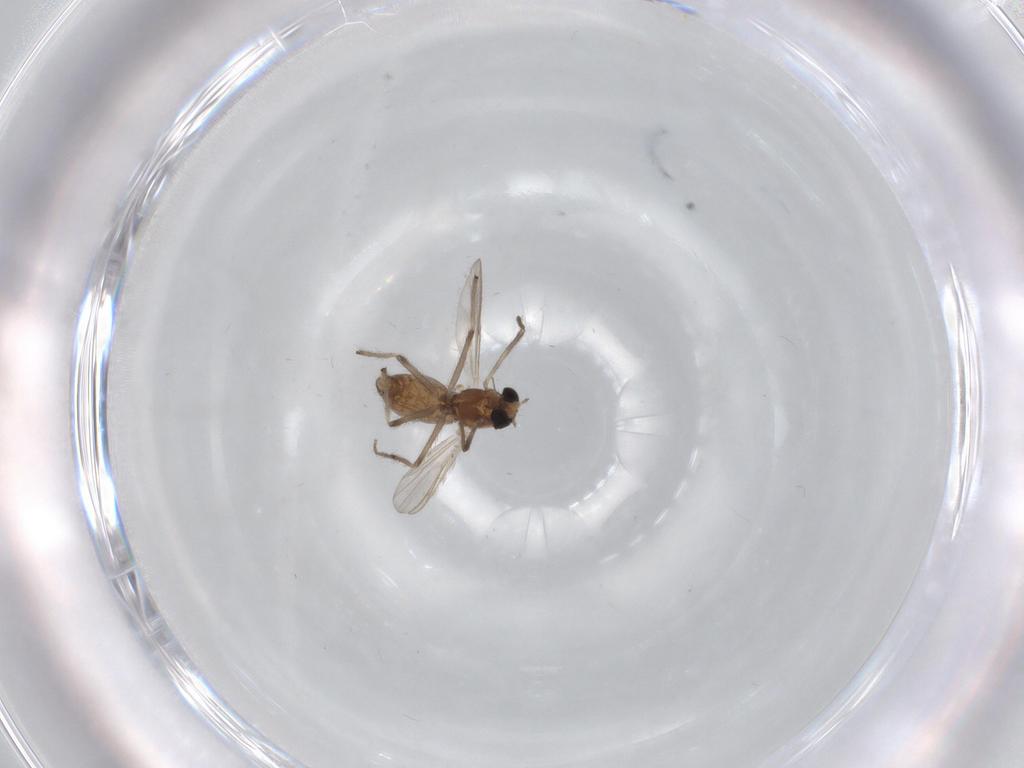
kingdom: Animalia
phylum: Arthropoda
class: Insecta
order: Diptera
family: Chironomidae
